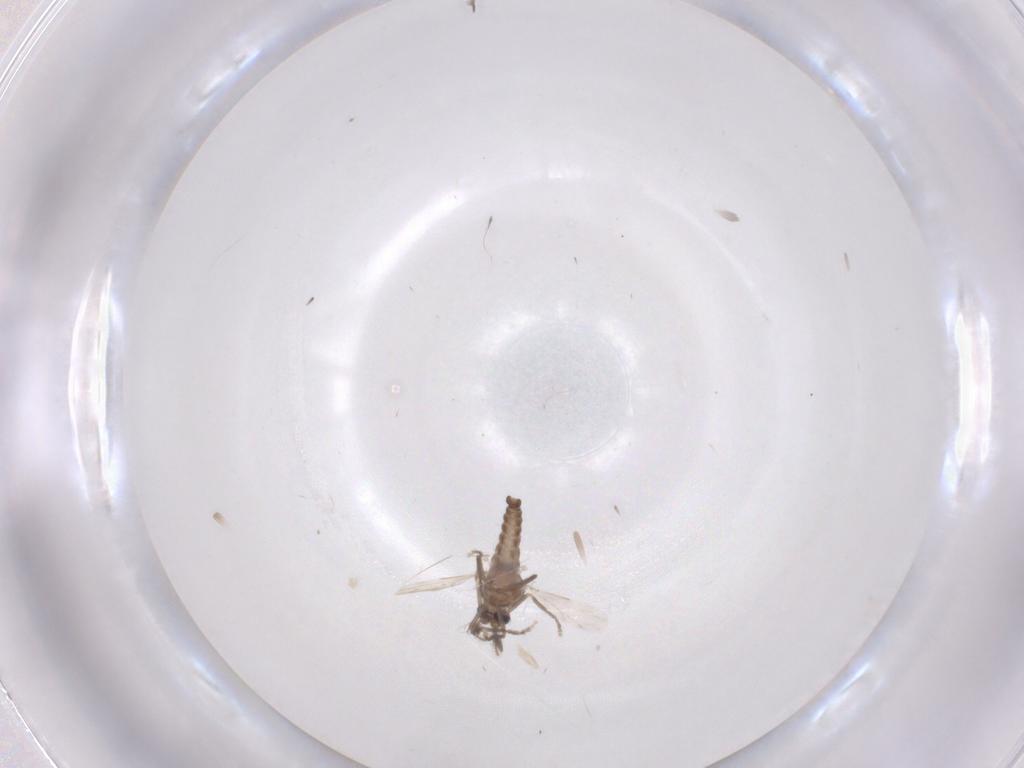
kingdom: Animalia
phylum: Arthropoda
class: Insecta
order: Diptera
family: Ceratopogonidae
